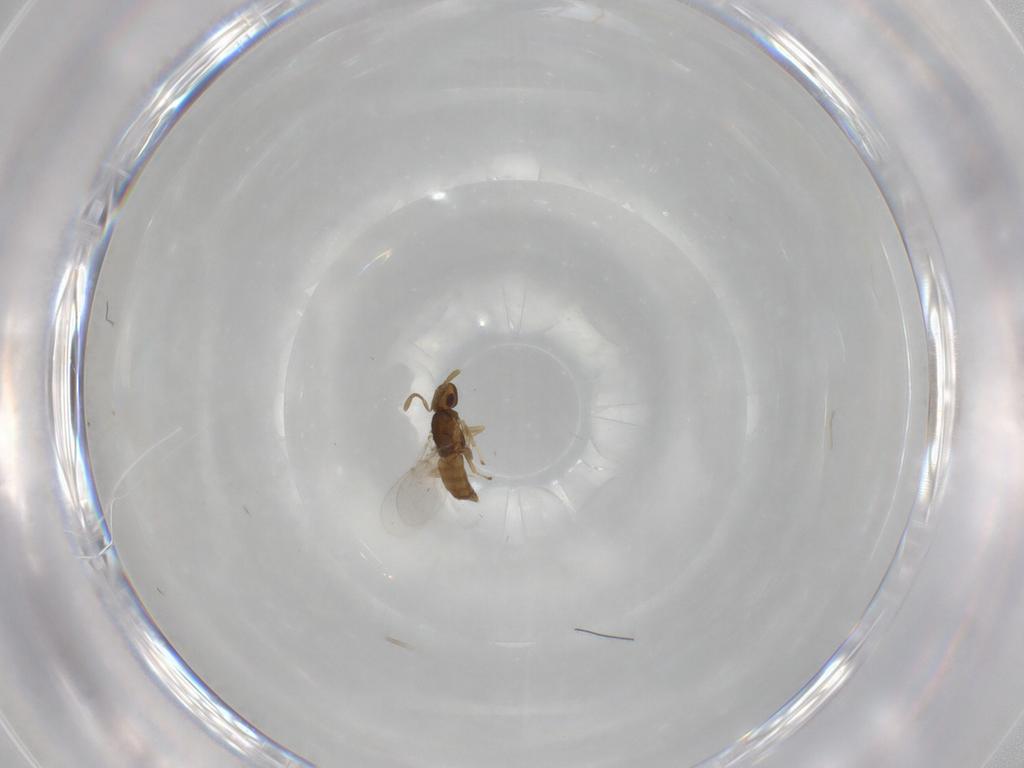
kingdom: Animalia
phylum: Arthropoda
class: Insecta
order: Hymenoptera
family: Encyrtidae
